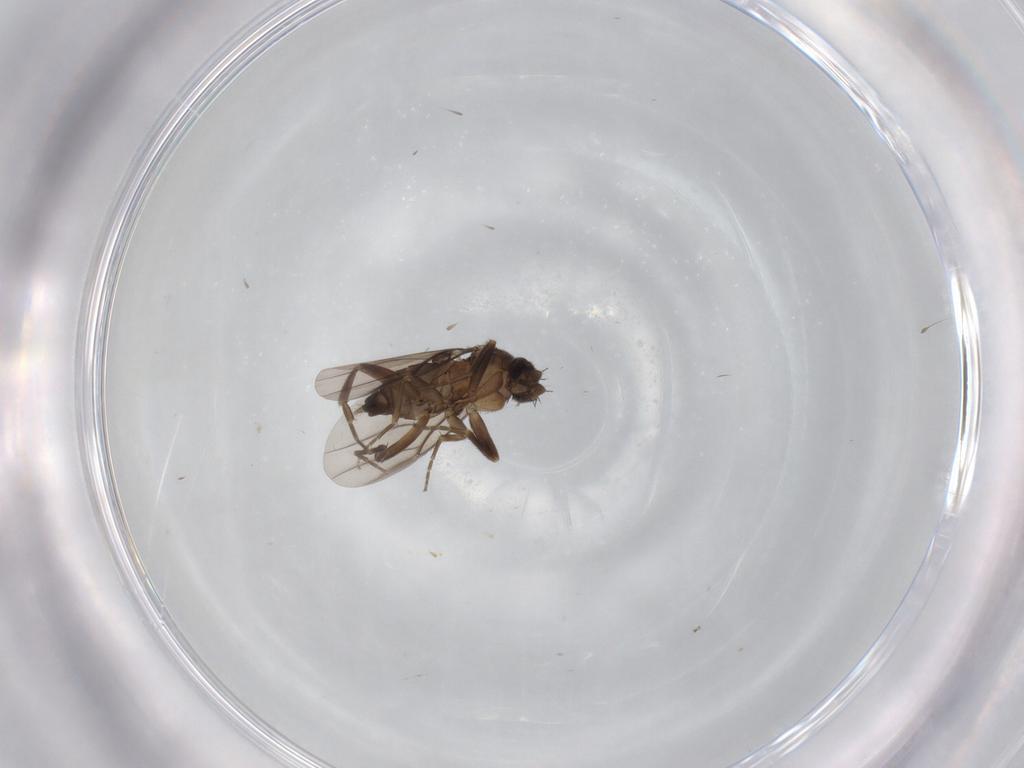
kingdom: Animalia
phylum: Arthropoda
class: Insecta
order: Diptera
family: Phoridae
